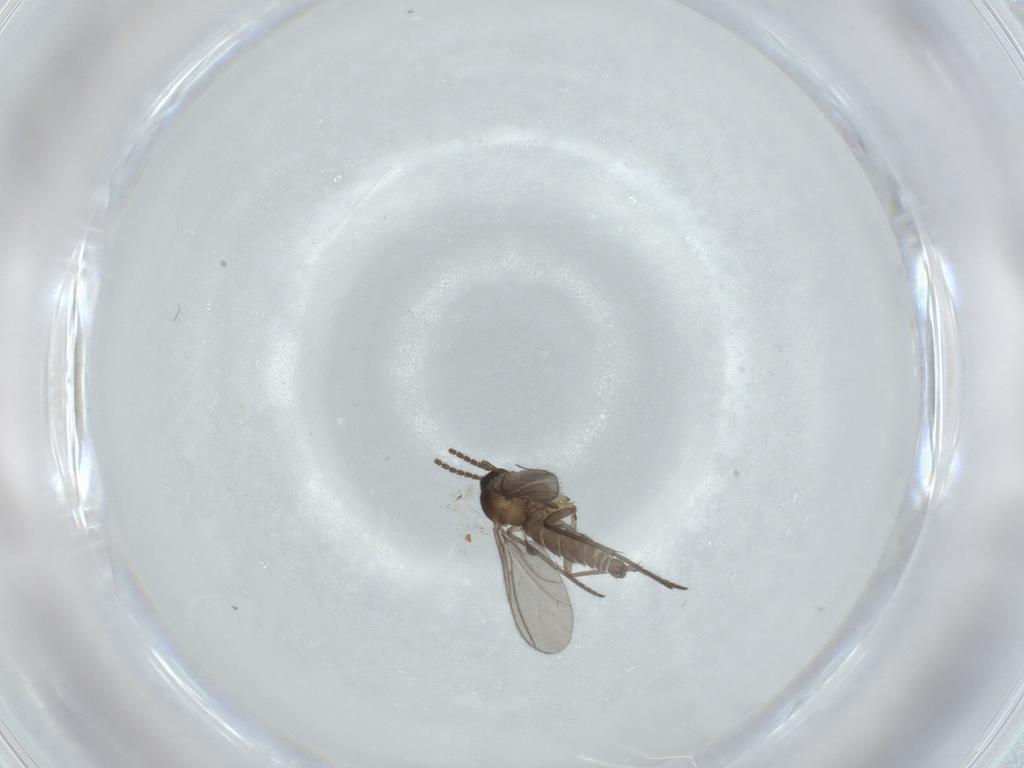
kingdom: Animalia
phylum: Arthropoda
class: Insecta
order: Diptera
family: Sciaridae
